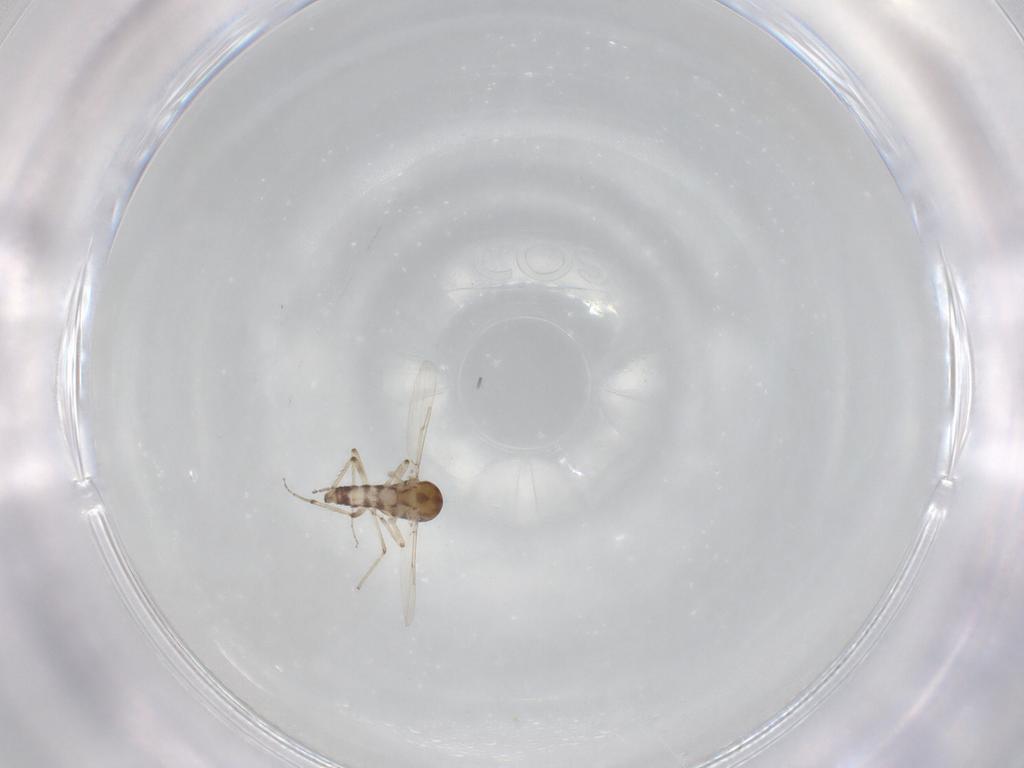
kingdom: Animalia
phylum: Arthropoda
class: Insecta
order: Diptera
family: Ceratopogonidae
